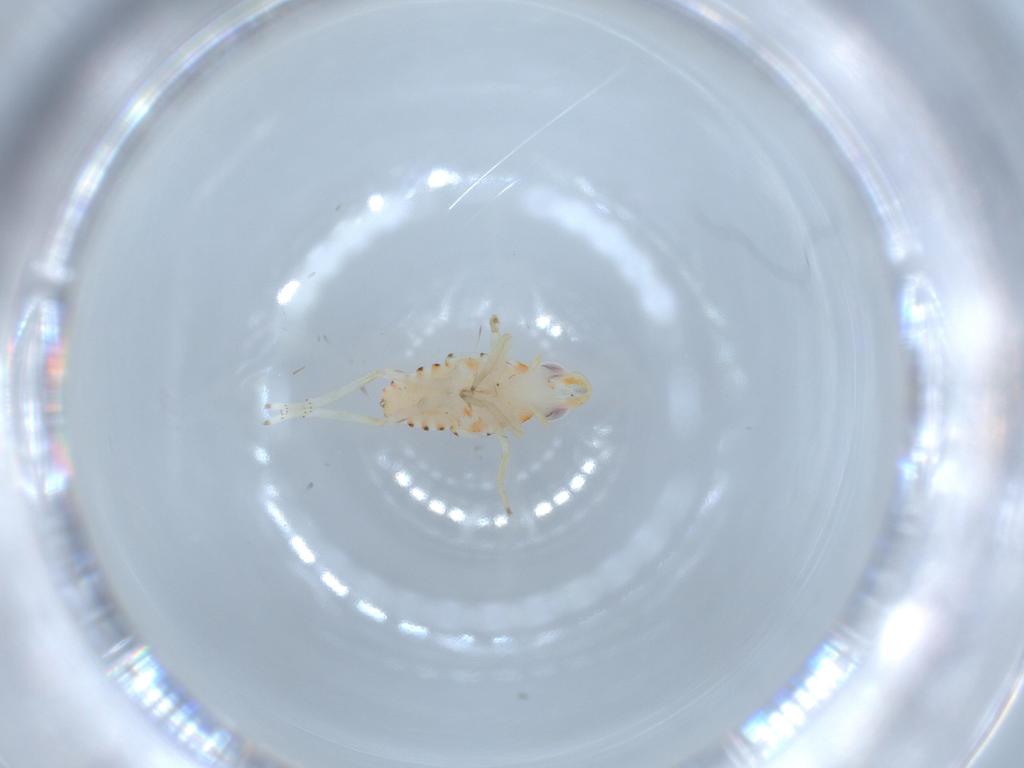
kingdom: Animalia
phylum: Arthropoda
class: Insecta
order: Hemiptera
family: Tropiduchidae
